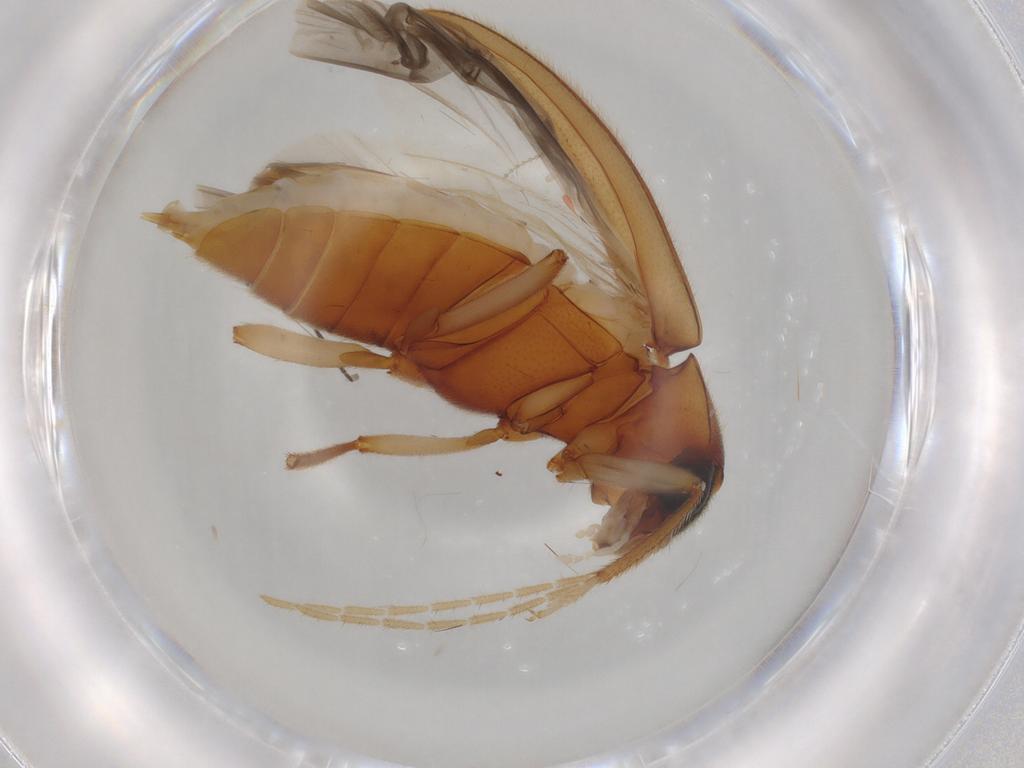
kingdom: Animalia
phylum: Arthropoda
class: Insecta
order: Coleoptera
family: Ptilodactylidae
